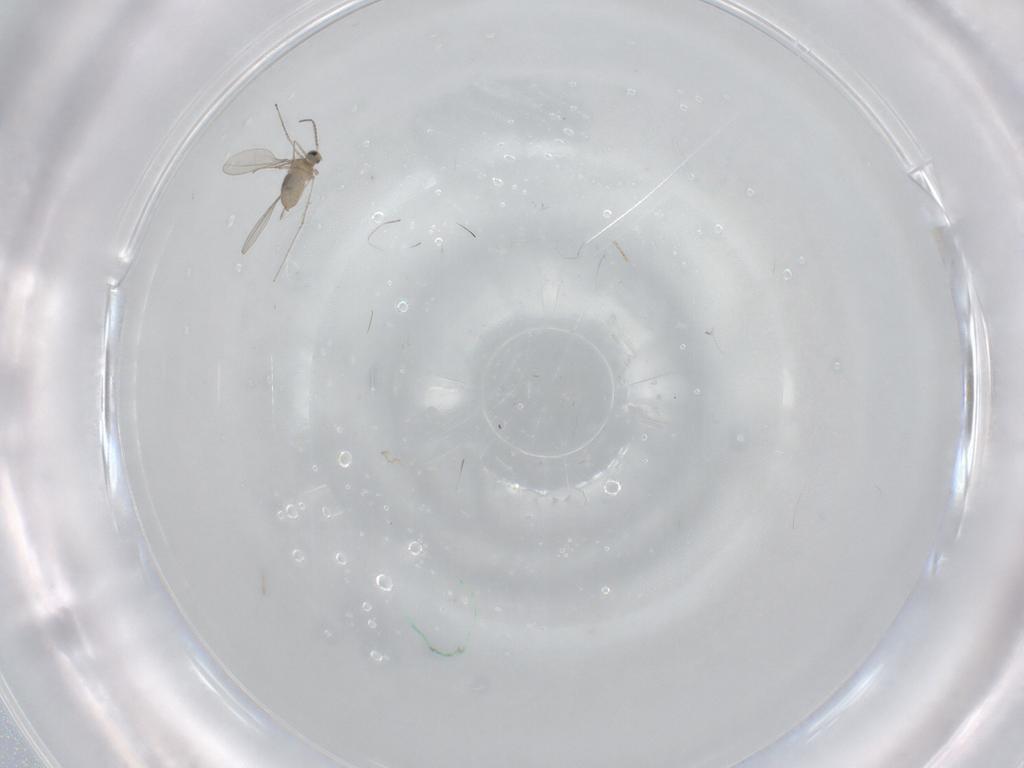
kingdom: Animalia
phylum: Arthropoda
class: Insecta
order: Diptera
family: Cecidomyiidae
